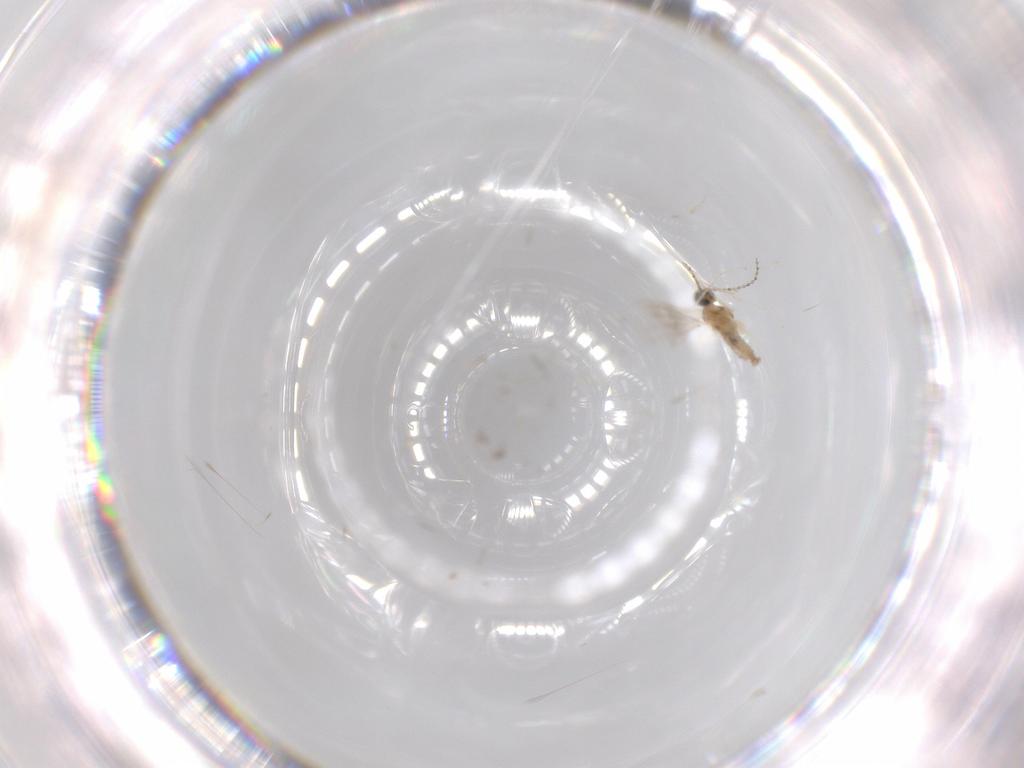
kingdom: Animalia
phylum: Arthropoda
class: Insecta
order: Diptera
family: Cecidomyiidae
